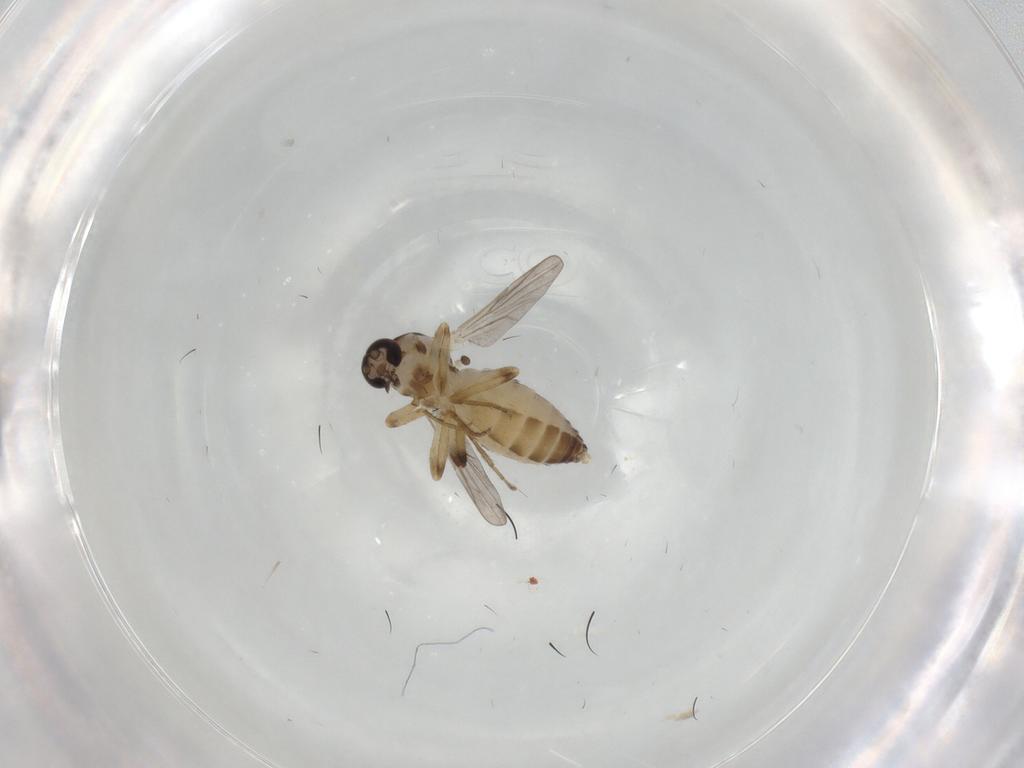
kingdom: Animalia
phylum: Arthropoda
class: Insecta
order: Diptera
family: Ceratopogonidae
